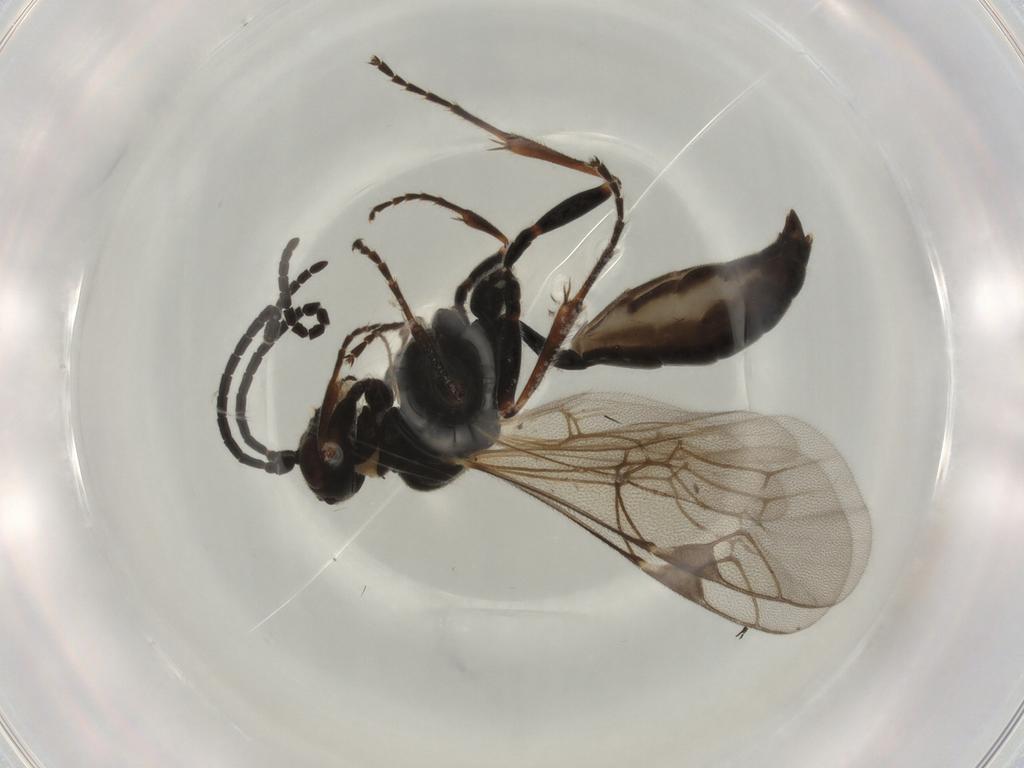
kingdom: Animalia
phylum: Arthropoda
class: Insecta
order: Hymenoptera
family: Ichneumonidae
